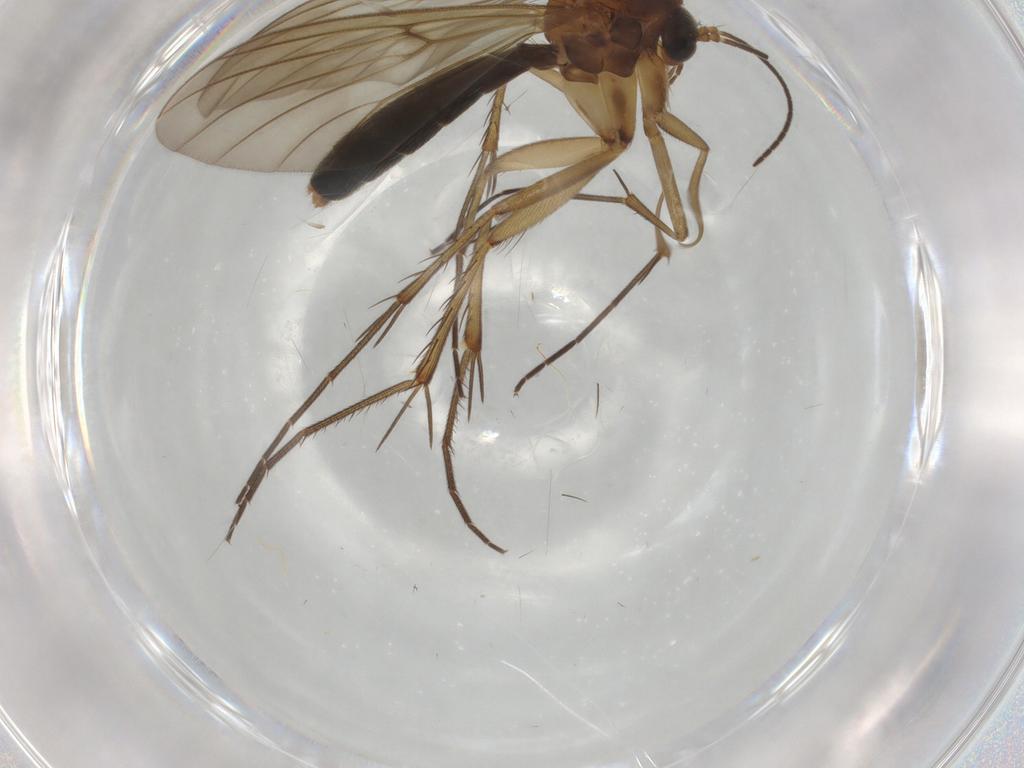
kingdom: Animalia
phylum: Arthropoda
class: Insecta
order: Diptera
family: Mycetophilidae
